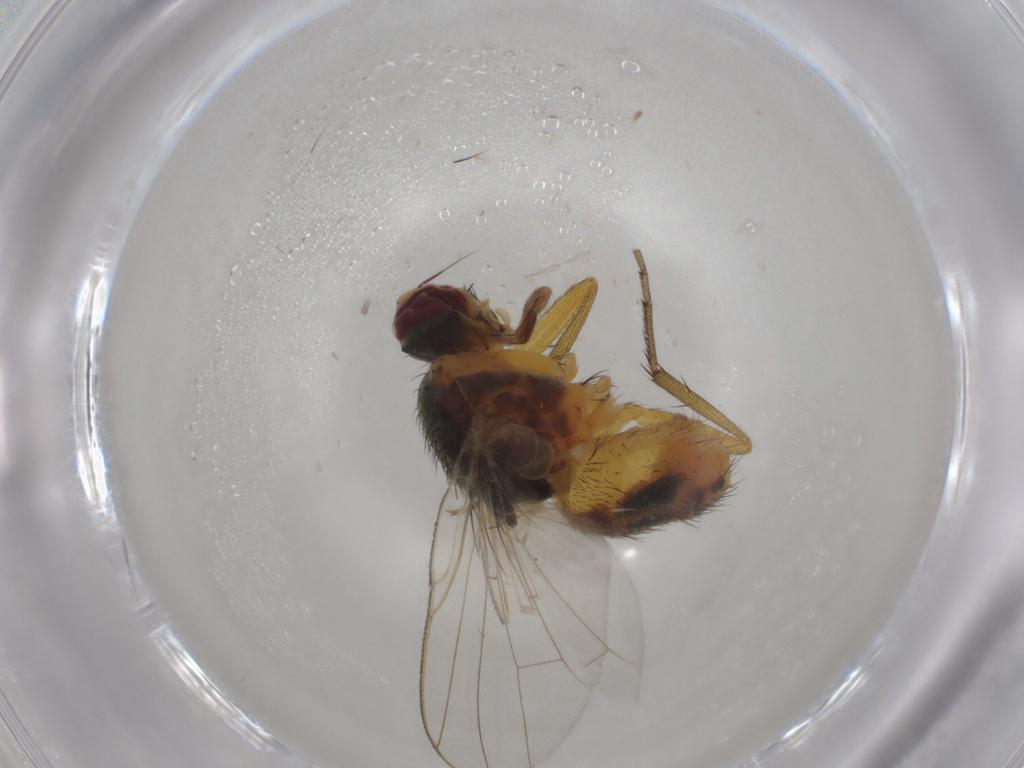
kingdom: Animalia
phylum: Arthropoda
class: Insecta
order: Diptera
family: Muscidae
